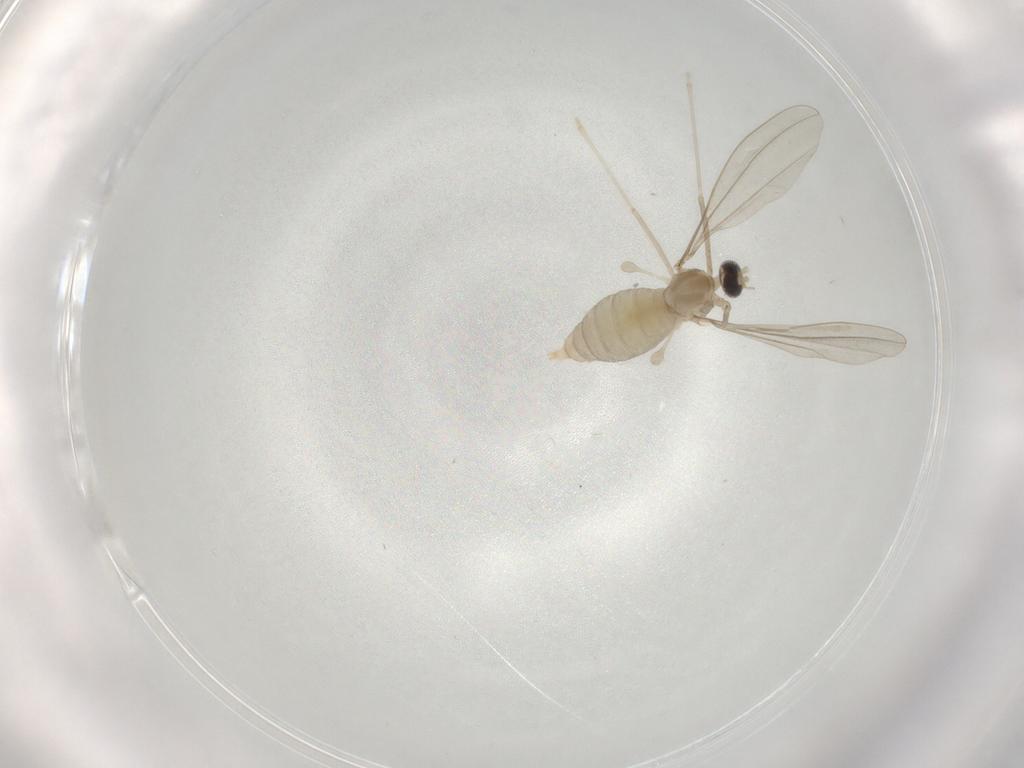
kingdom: Animalia
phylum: Arthropoda
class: Insecta
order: Diptera
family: Cecidomyiidae
